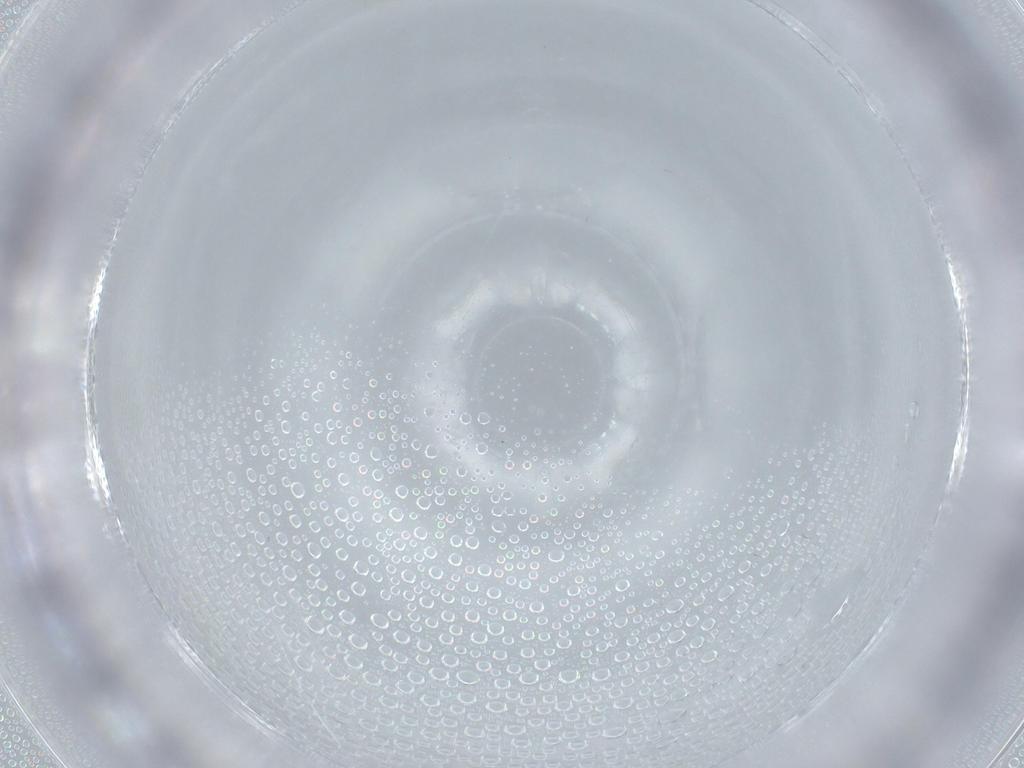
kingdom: Animalia
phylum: Arthropoda
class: Insecta
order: Diptera
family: Cecidomyiidae
